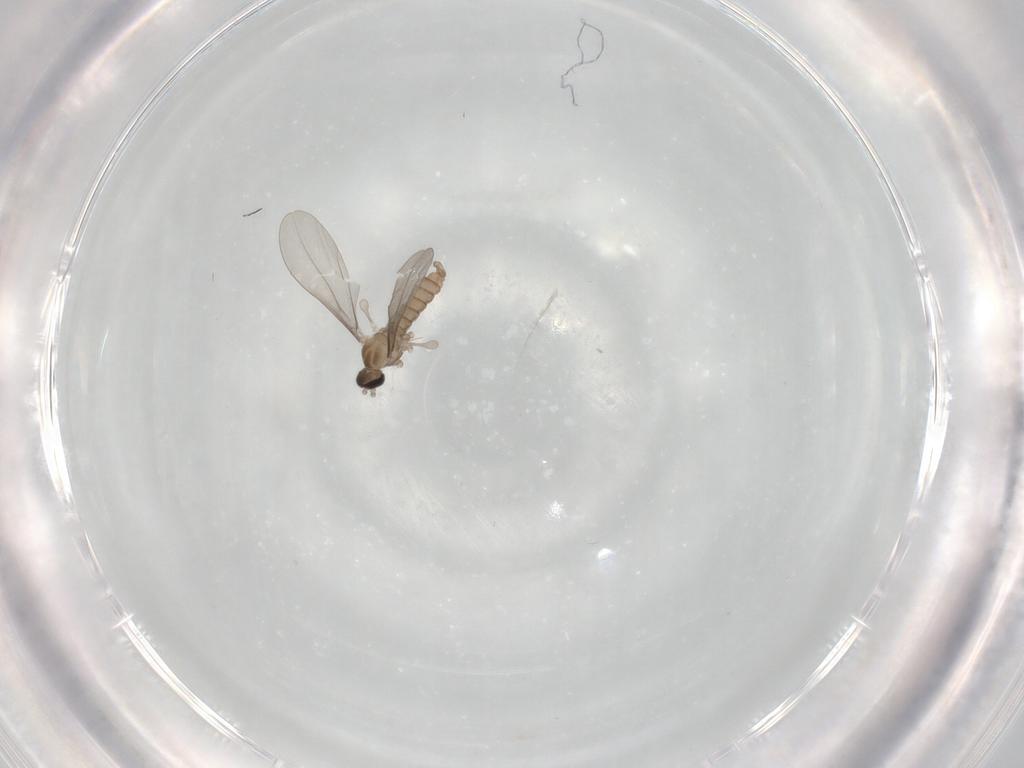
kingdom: Animalia
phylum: Arthropoda
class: Insecta
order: Diptera
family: Cecidomyiidae
